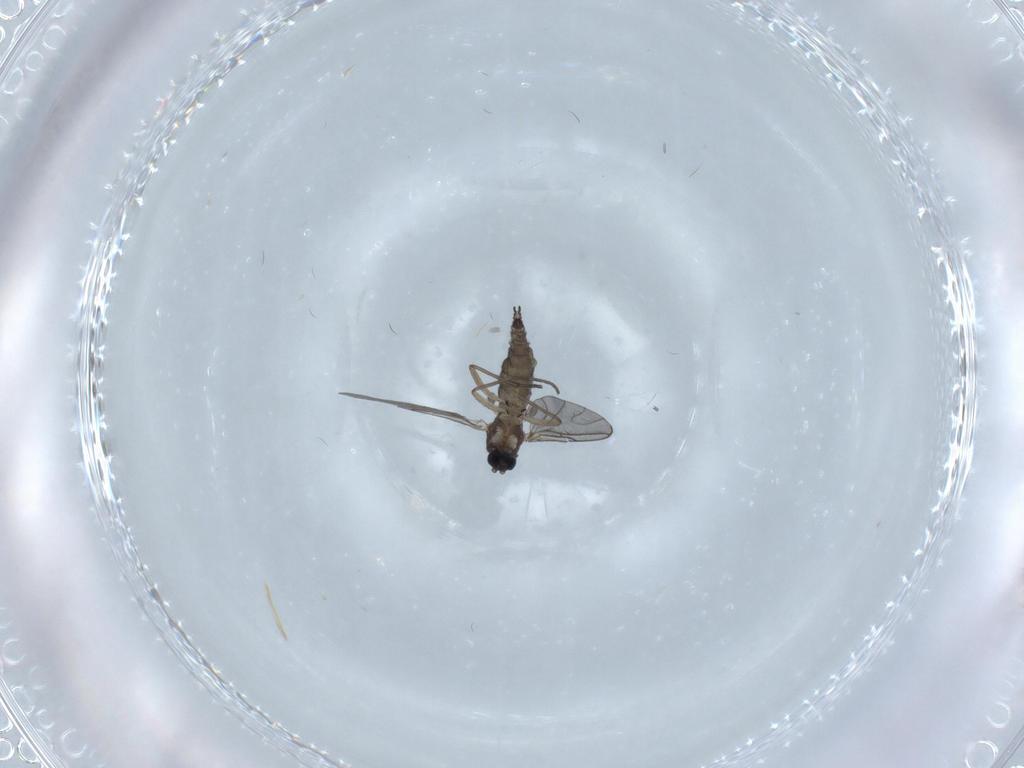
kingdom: Animalia
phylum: Arthropoda
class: Insecta
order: Diptera
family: Sciaridae
